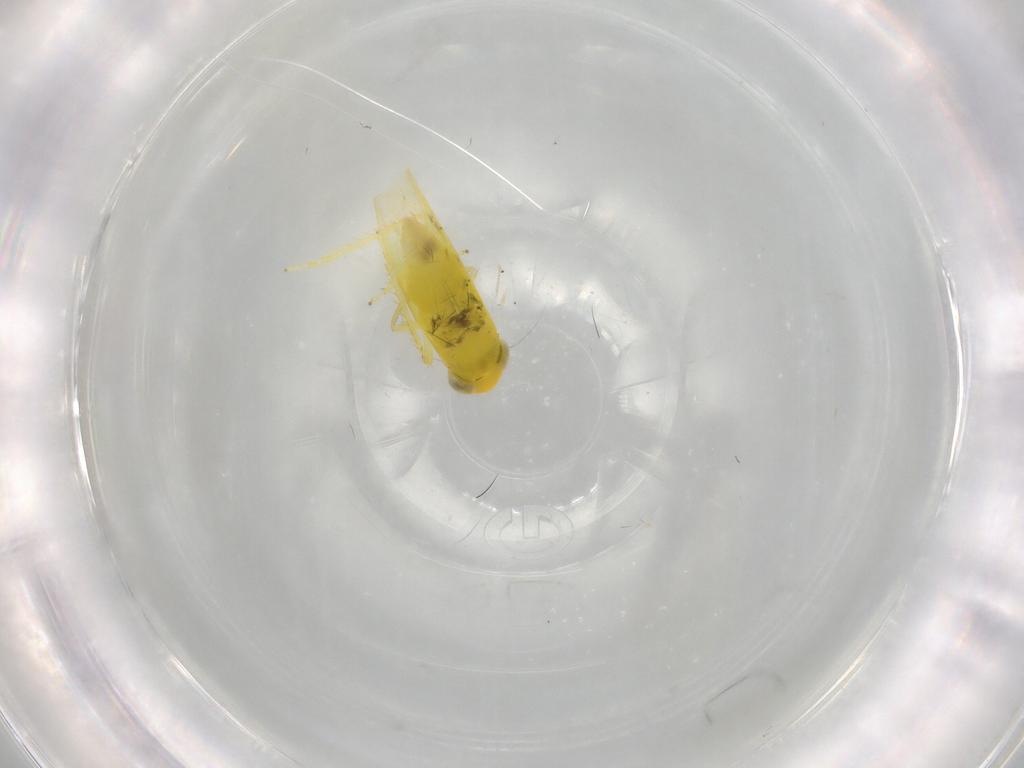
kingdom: Animalia
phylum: Arthropoda
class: Insecta
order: Hemiptera
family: Cicadellidae
